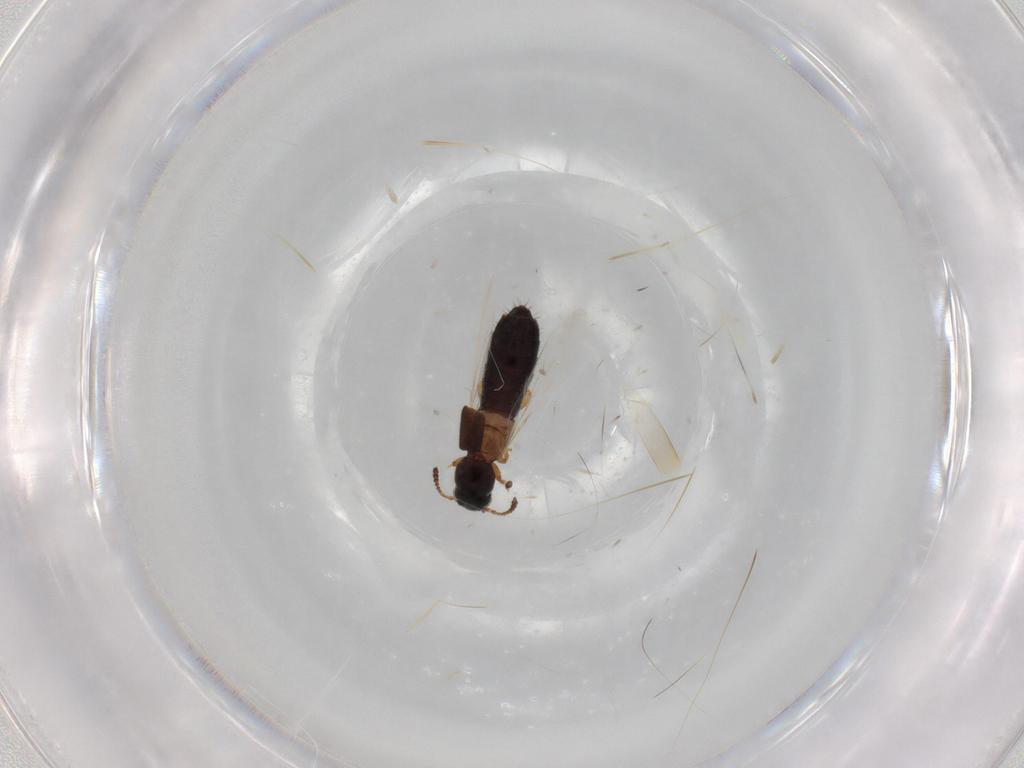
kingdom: Animalia
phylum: Arthropoda
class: Insecta
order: Coleoptera
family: Staphylinidae
